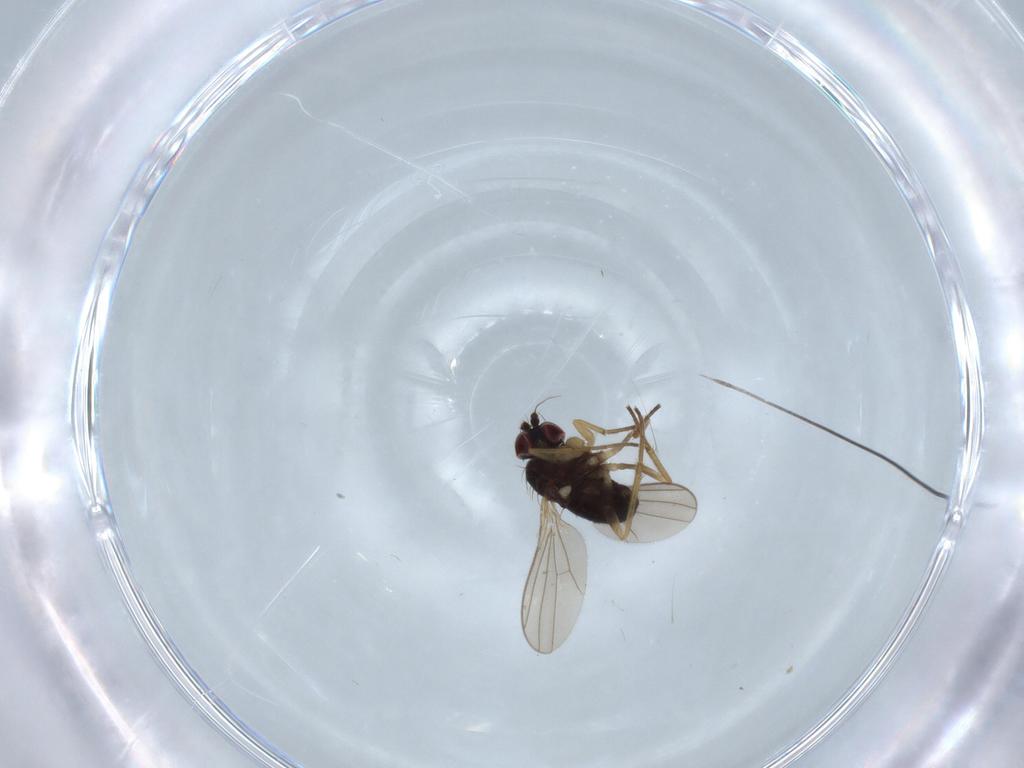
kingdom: Animalia
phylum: Arthropoda
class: Insecta
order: Diptera
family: Dolichopodidae
